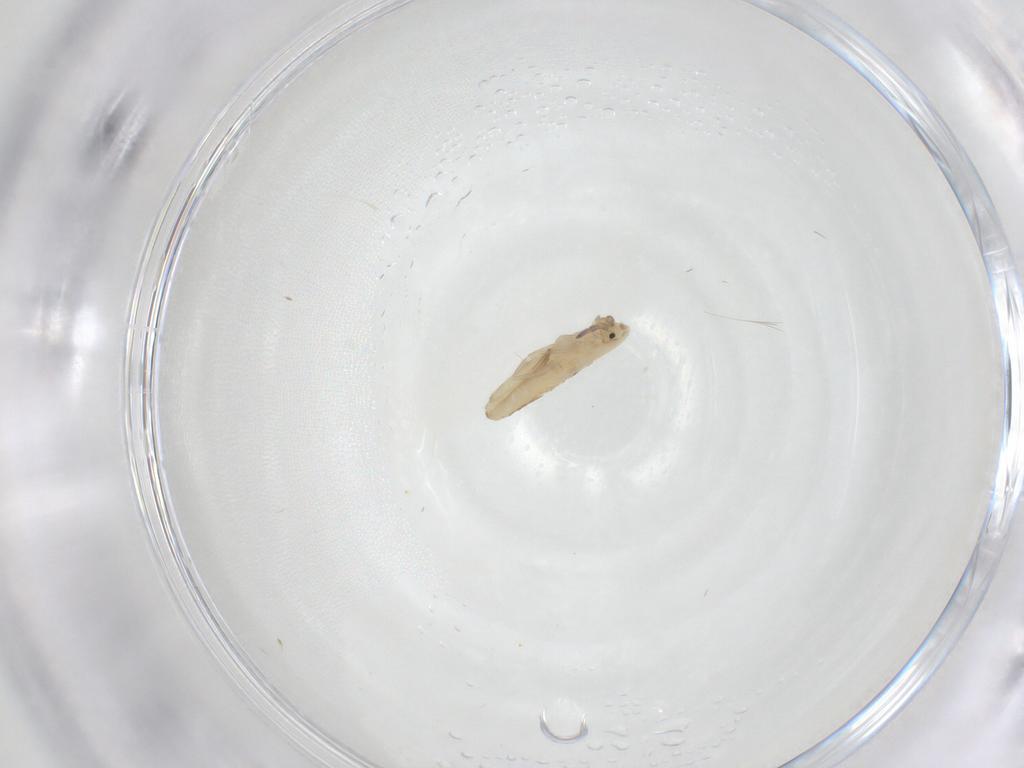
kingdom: Animalia
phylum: Arthropoda
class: Collembola
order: Entomobryomorpha
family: Entomobryidae
